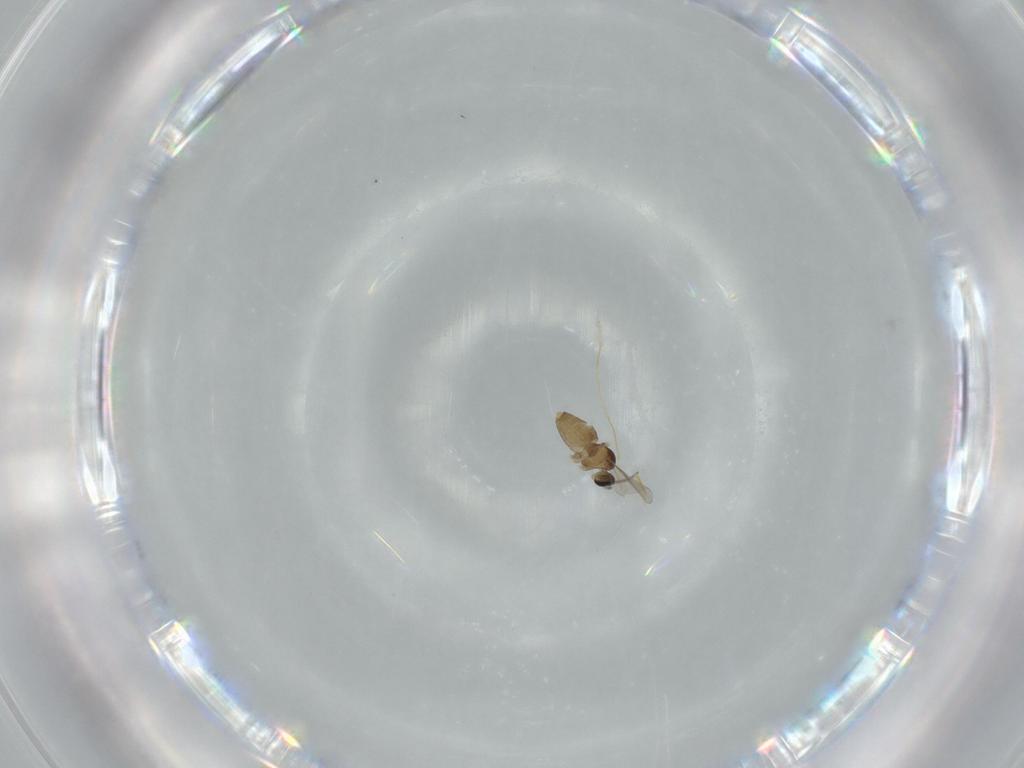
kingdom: Animalia
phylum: Arthropoda
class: Insecta
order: Diptera
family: Cecidomyiidae
